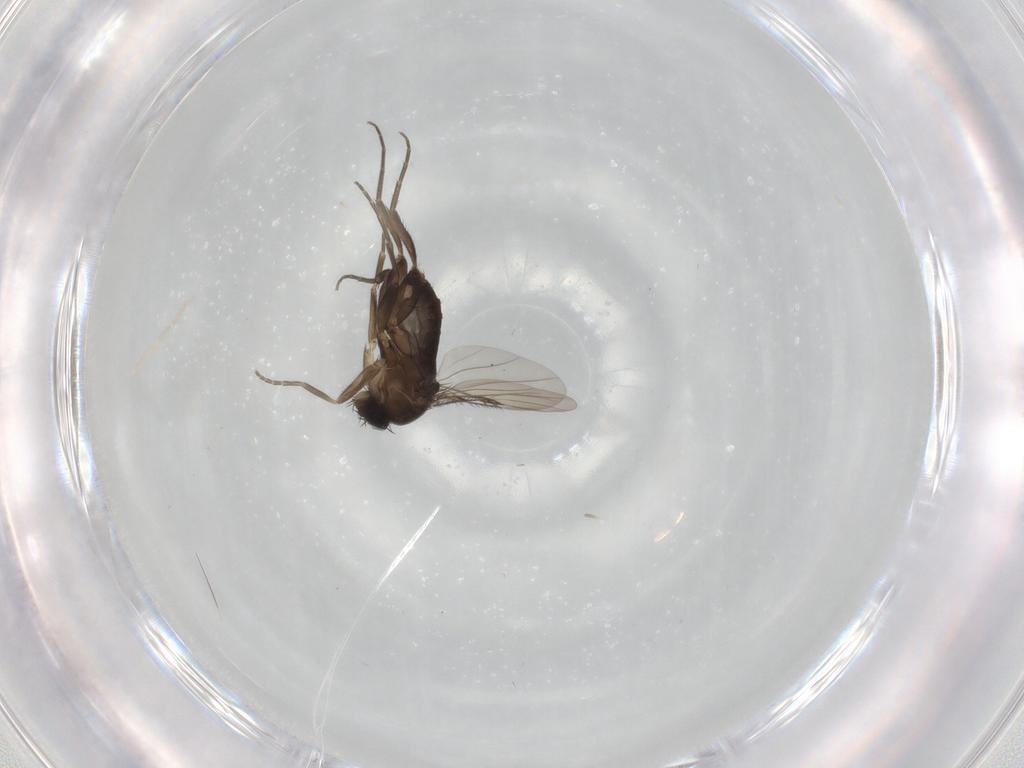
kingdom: Animalia
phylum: Arthropoda
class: Insecta
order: Diptera
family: Phoridae
